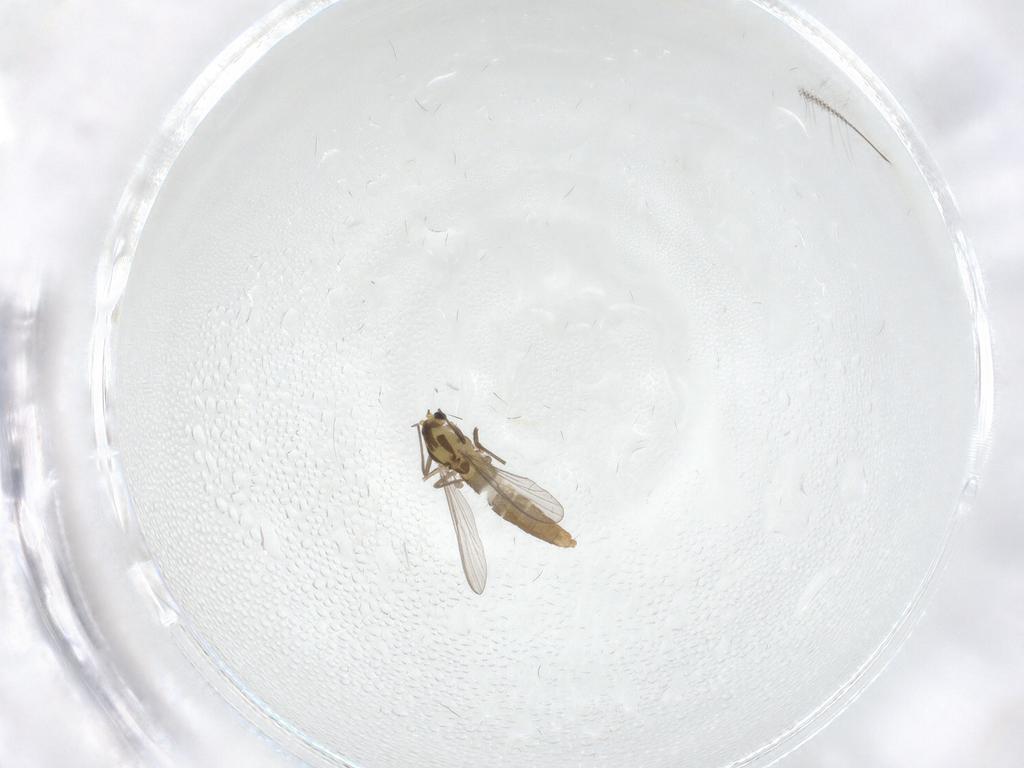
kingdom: Animalia
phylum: Arthropoda
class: Insecta
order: Diptera
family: Chironomidae
